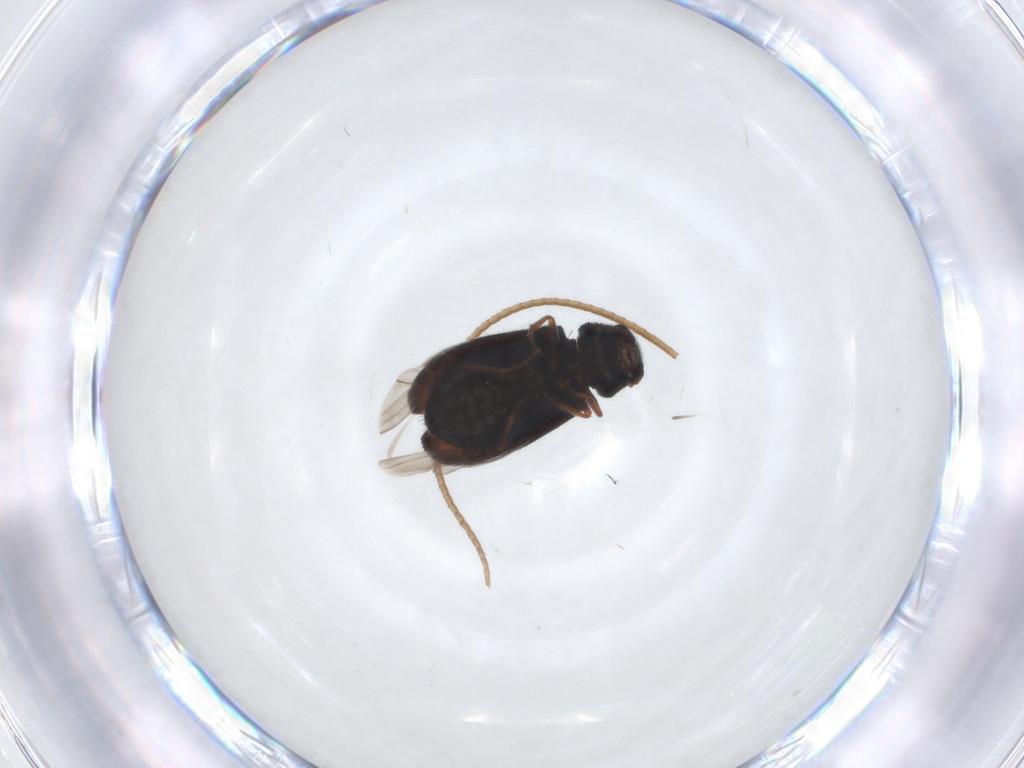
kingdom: Animalia
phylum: Arthropoda
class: Insecta
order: Coleoptera
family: Melyridae
